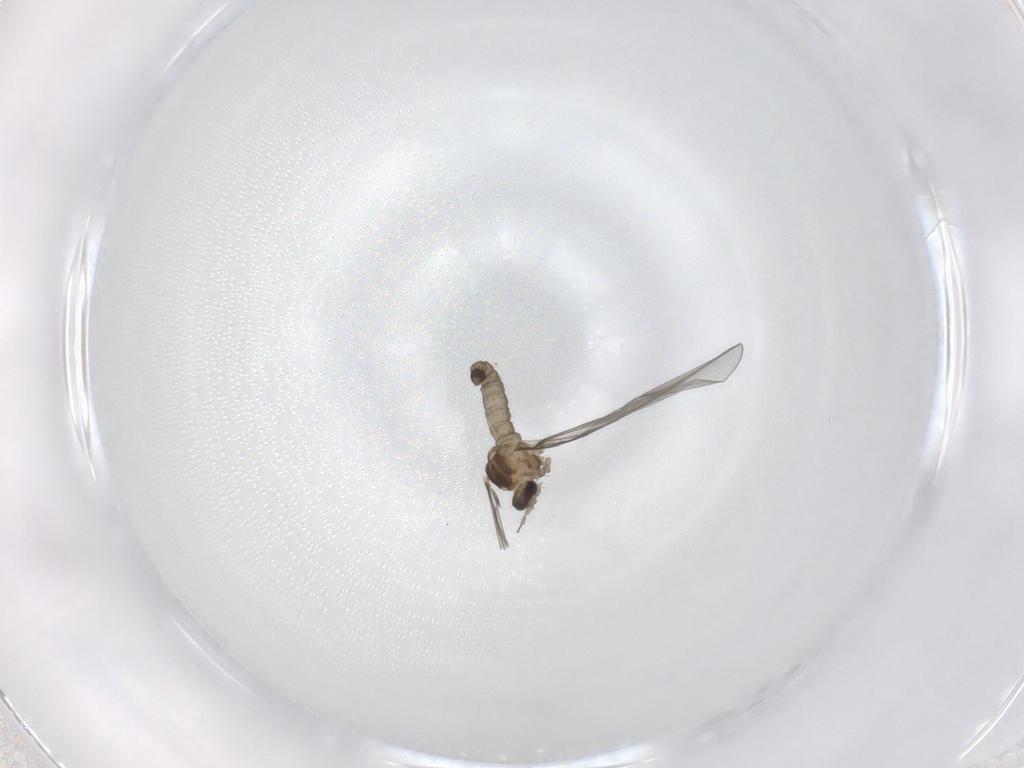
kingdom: Animalia
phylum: Arthropoda
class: Insecta
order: Diptera
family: Cecidomyiidae
